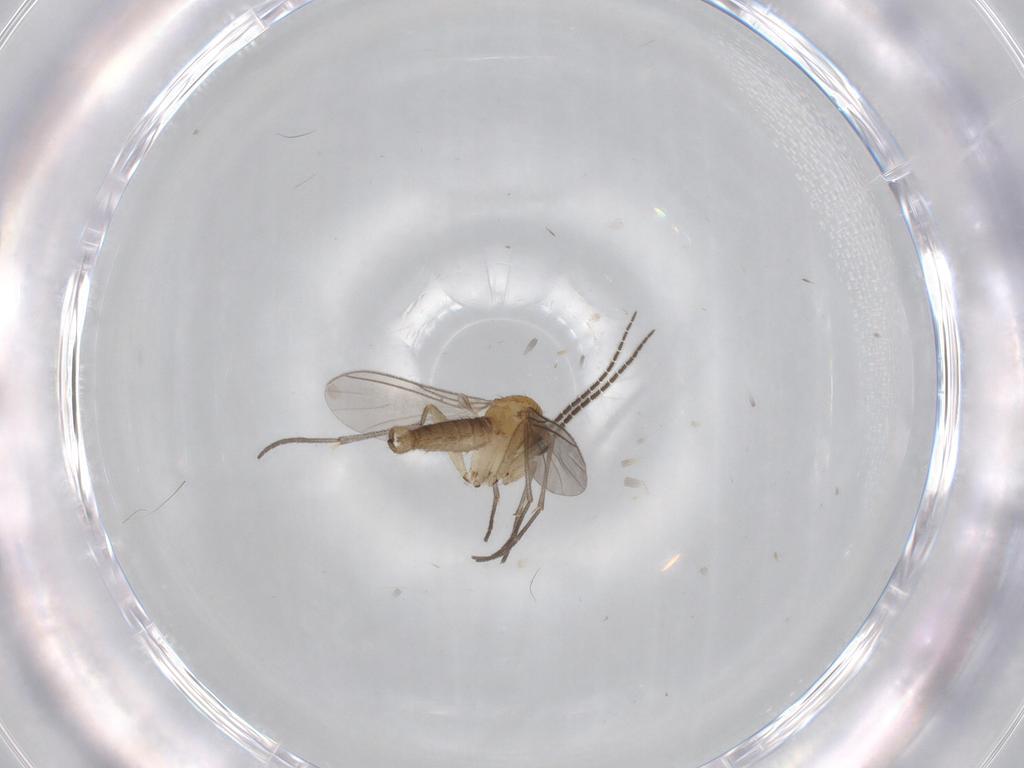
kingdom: Animalia
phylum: Arthropoda
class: Insecta
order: Diptera
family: Sciaridae
